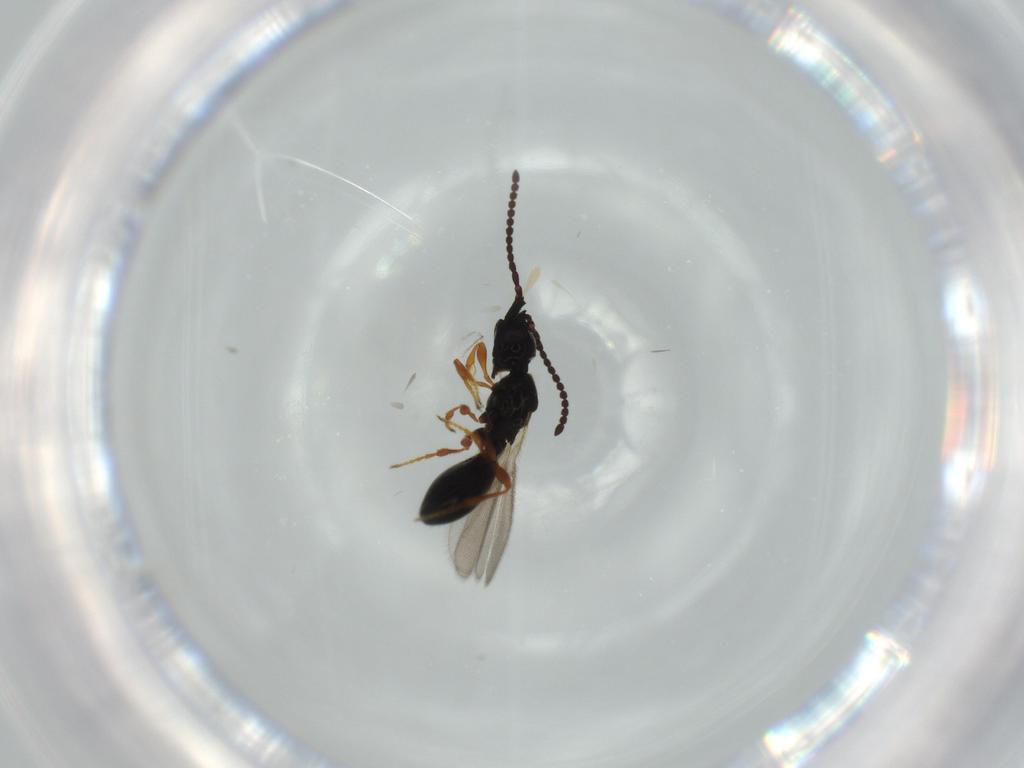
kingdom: Animalia
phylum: Arthropoda
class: Insecta
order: Hymenoptera
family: Diapriidae
